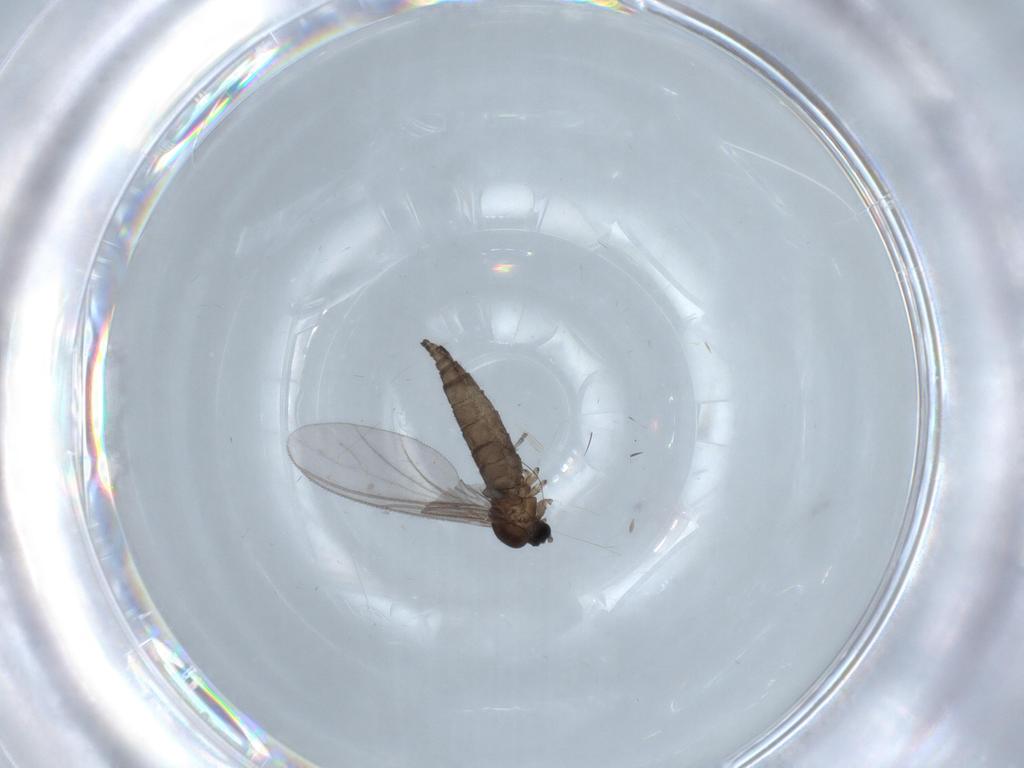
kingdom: Animalia
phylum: Arthropoda
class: Insecta
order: Diptera
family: Sciaridae
